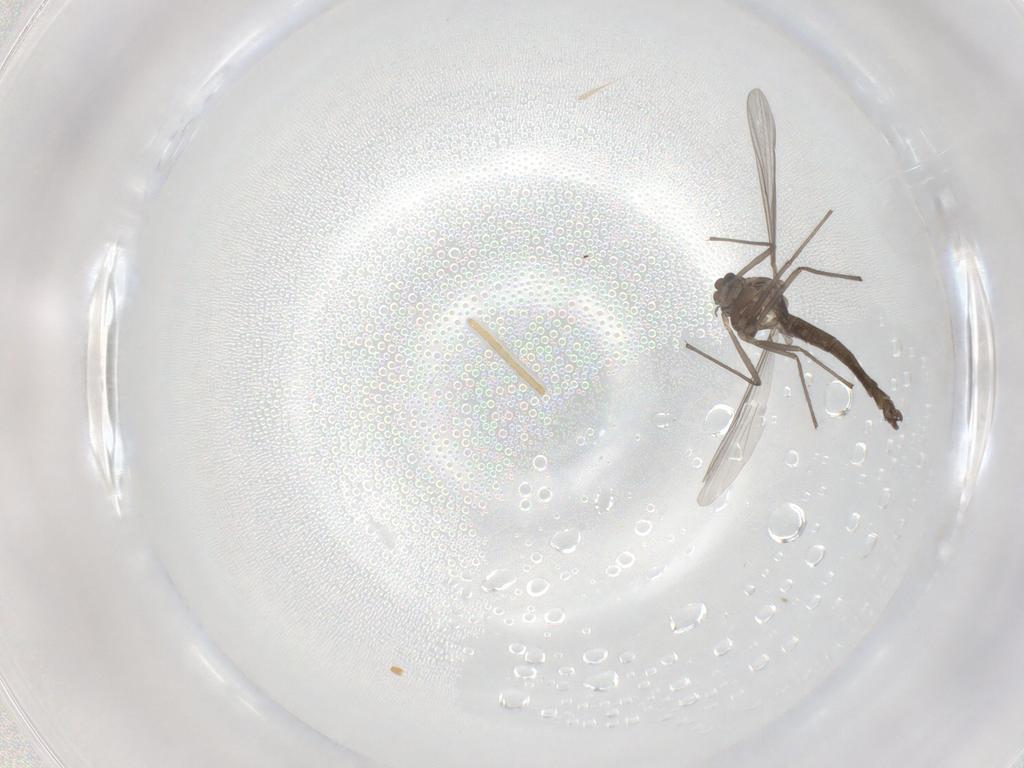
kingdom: Animalia
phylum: Arthropoda
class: Insecta
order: Diptera
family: Chironomidae
